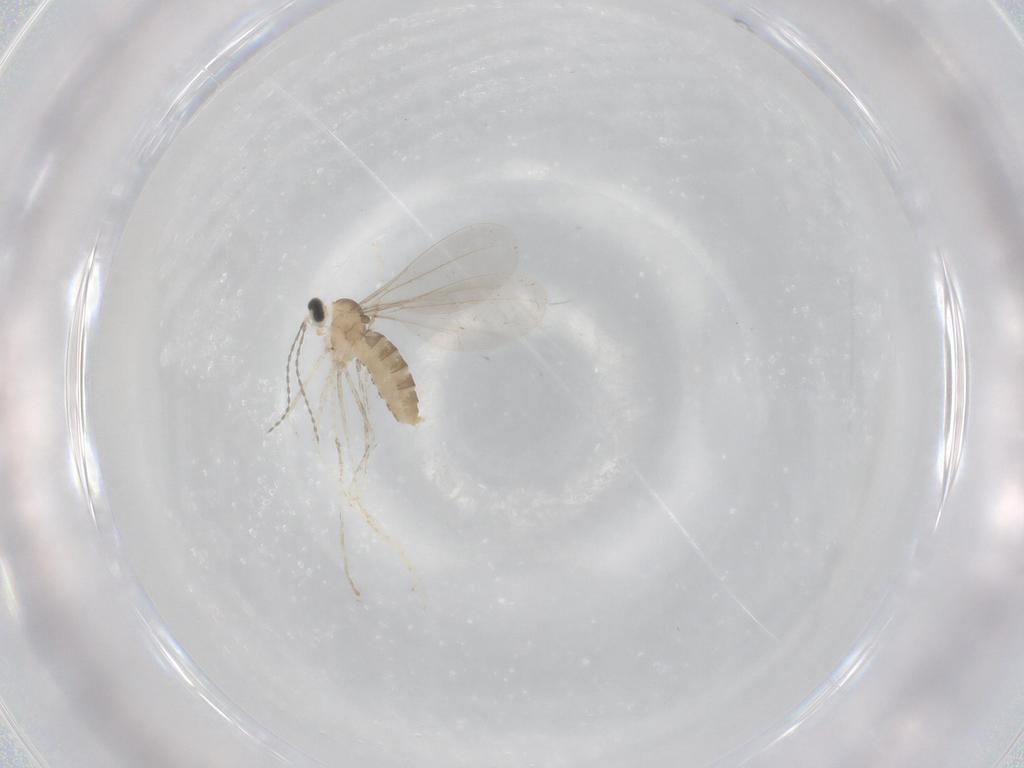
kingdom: Animalia
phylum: Arthropoda
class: Insecta
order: Diptera
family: Cecidomyiidae
